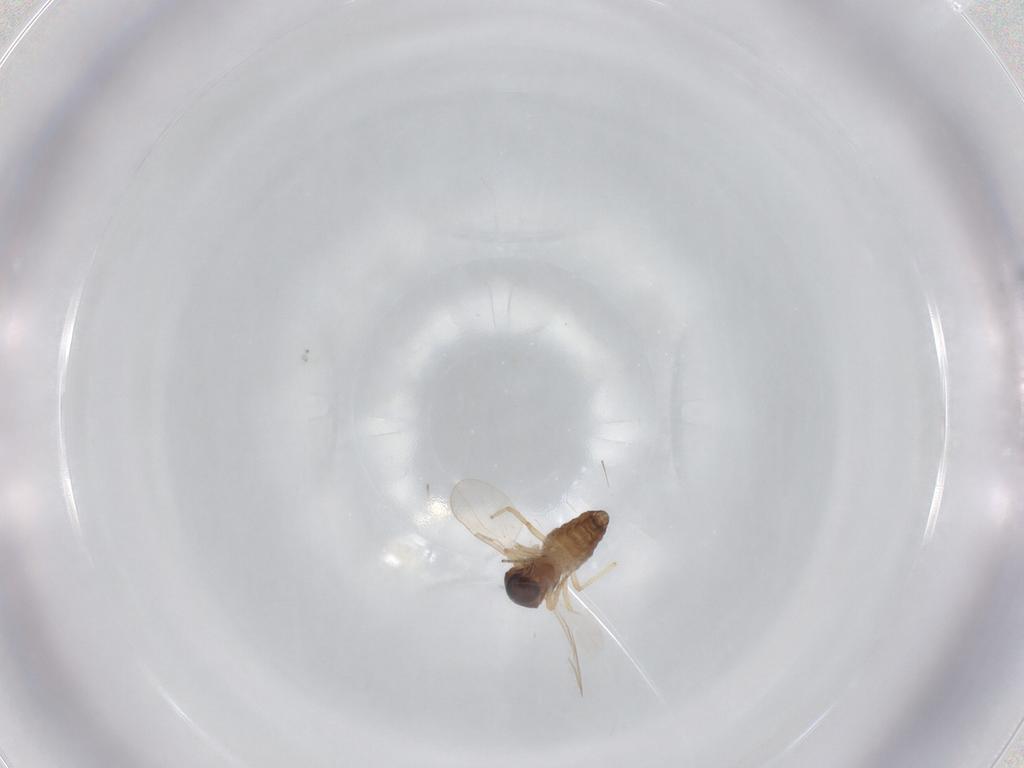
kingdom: Animalia
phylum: Arthropoda
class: Insecta
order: Diptera
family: Ceratopogonidae
